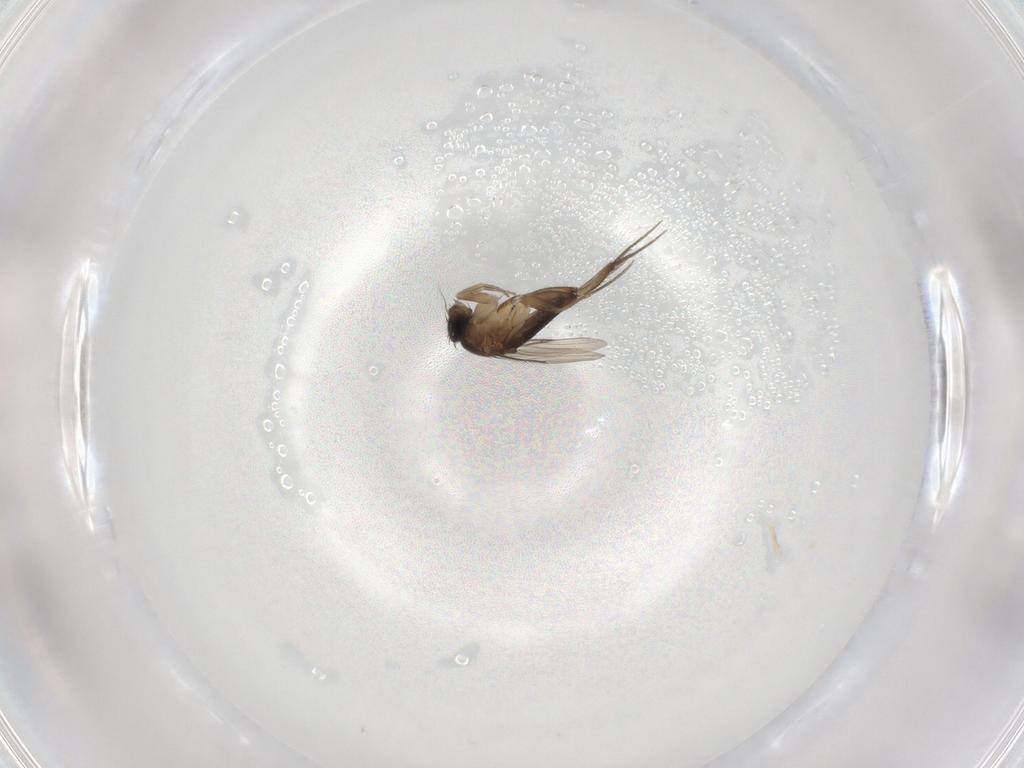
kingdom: Animalia
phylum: Arthropoda
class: Insecta
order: Diptera
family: Phoridae
